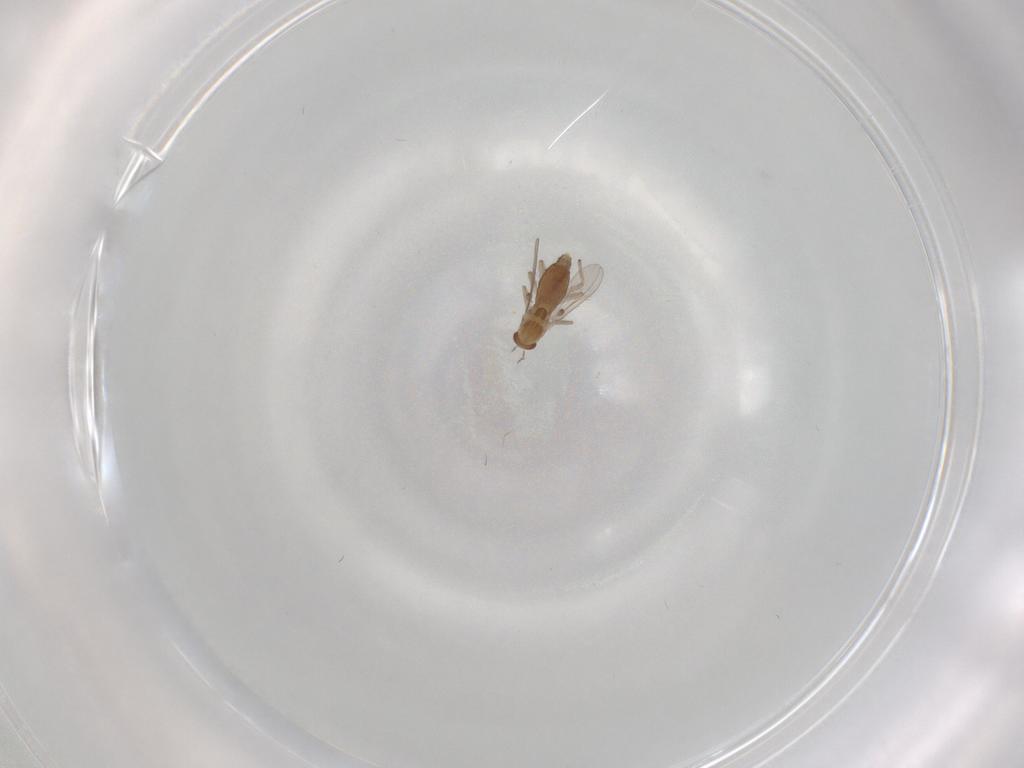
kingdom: Animalia
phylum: Arthropoda
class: Insecta
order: Diptera
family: Chironomidae
